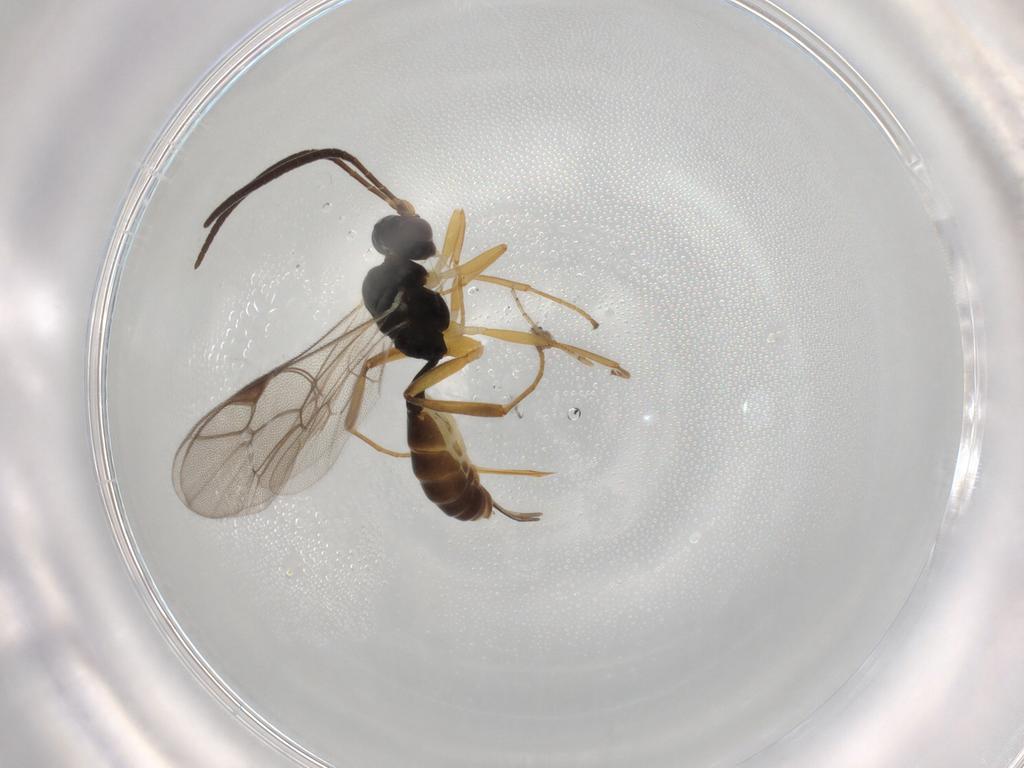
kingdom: Animalia
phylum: Arthropoda
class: Insecta
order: Hymenoptera
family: Ichneumonidae
